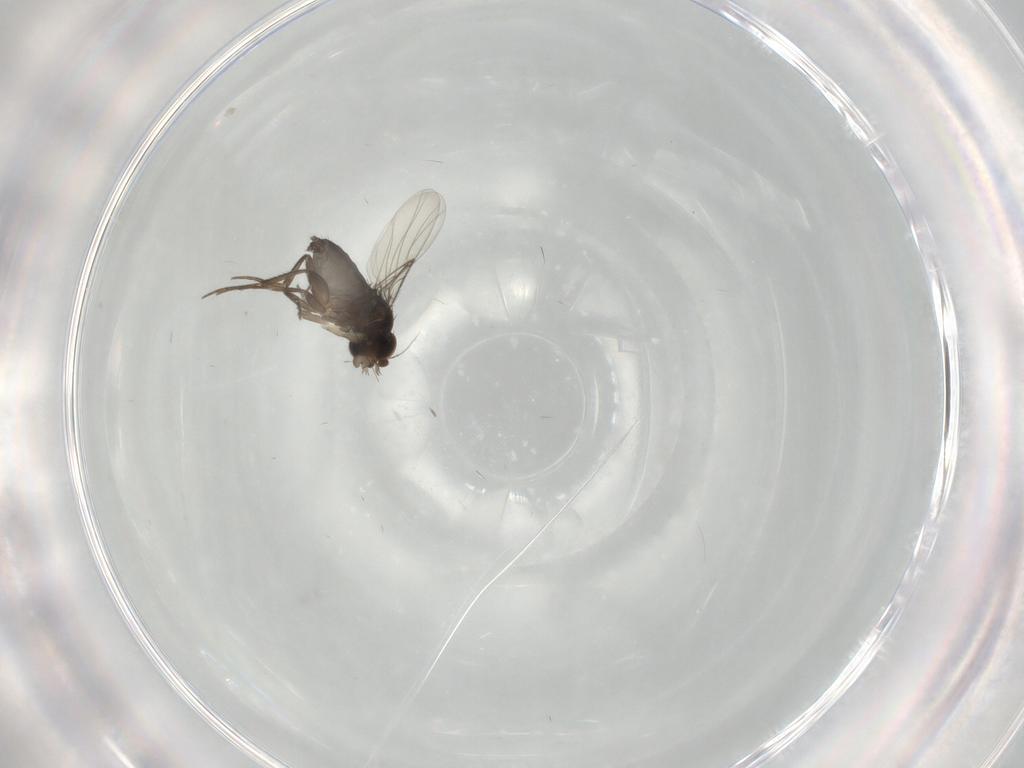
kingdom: Animalia
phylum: Arthropoda
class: Insecta
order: Diptera
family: Phoridae
